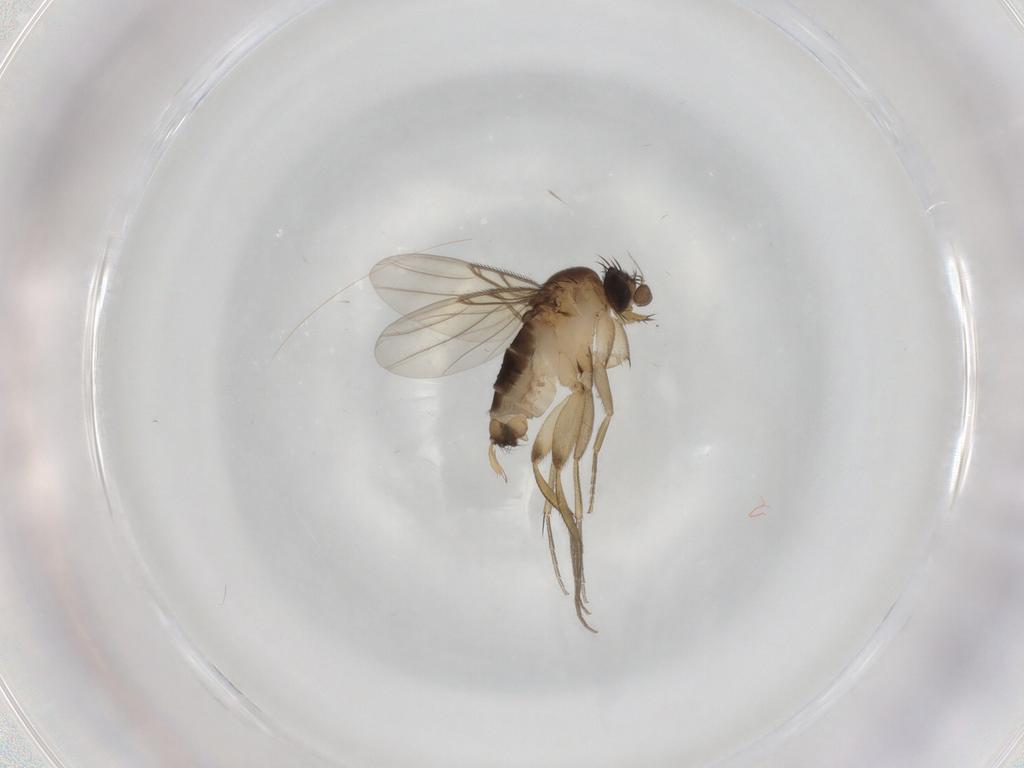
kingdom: Animalia
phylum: Arthropoda
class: Insecta
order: Diptera
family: Phoridae
